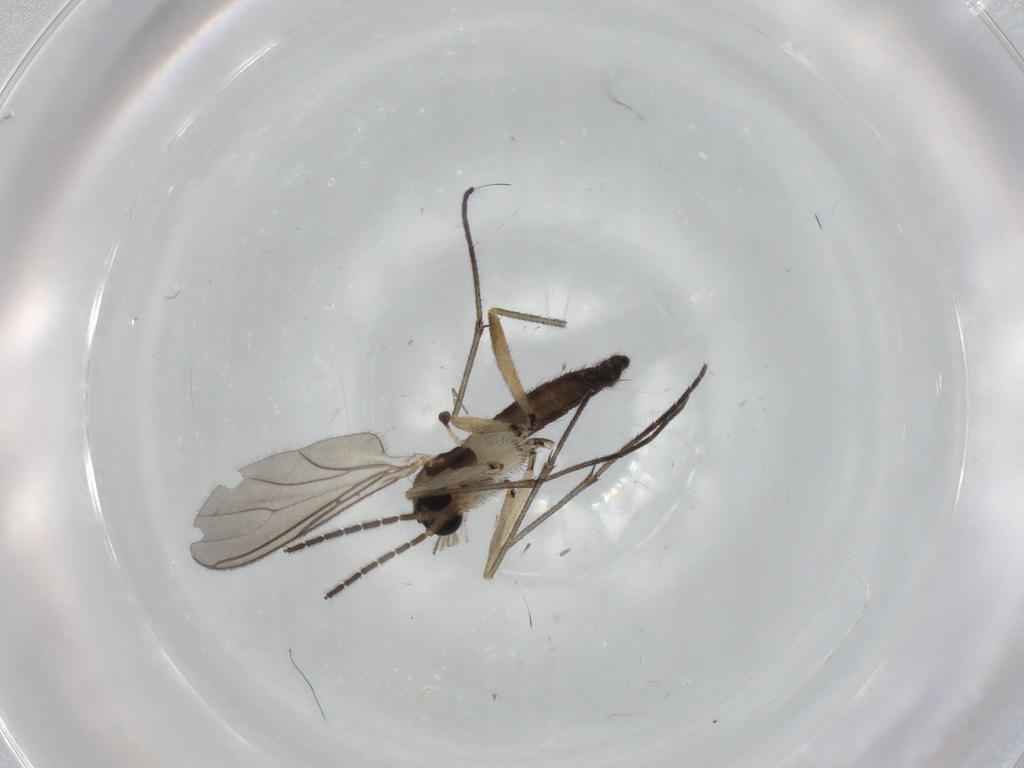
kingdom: Animalia
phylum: Arthropoda
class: Insecta
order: Diptera
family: Sciaridae
